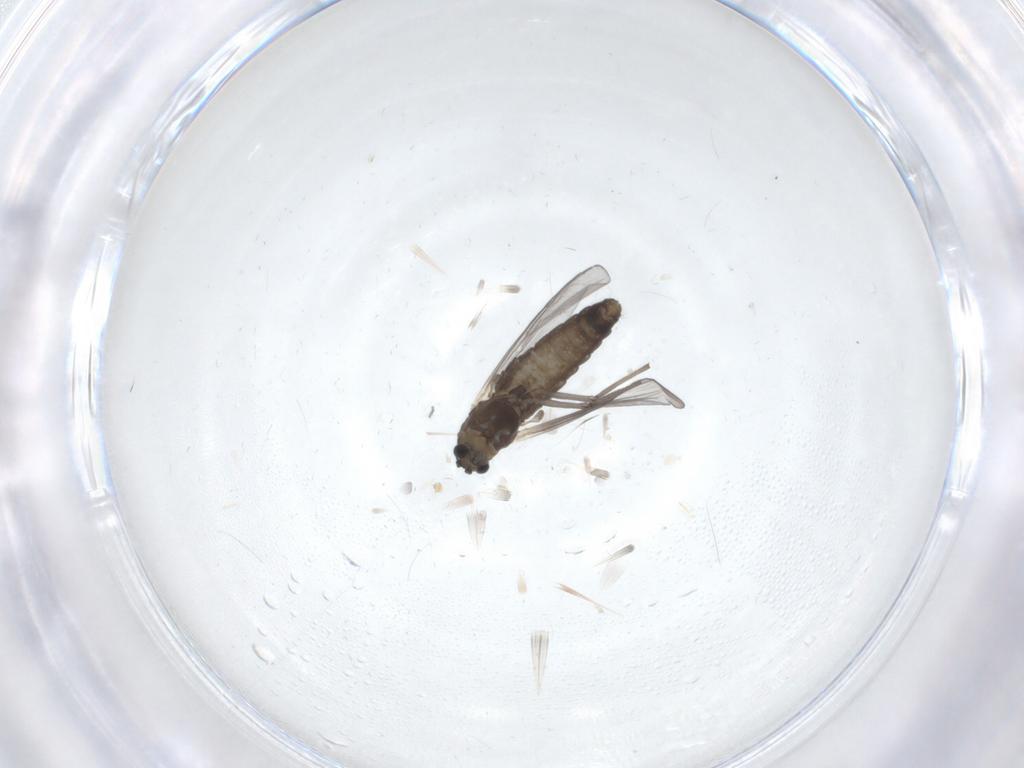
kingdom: Animalia
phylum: Arthropoda
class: Insecta
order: Diptera
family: Chironomidae
